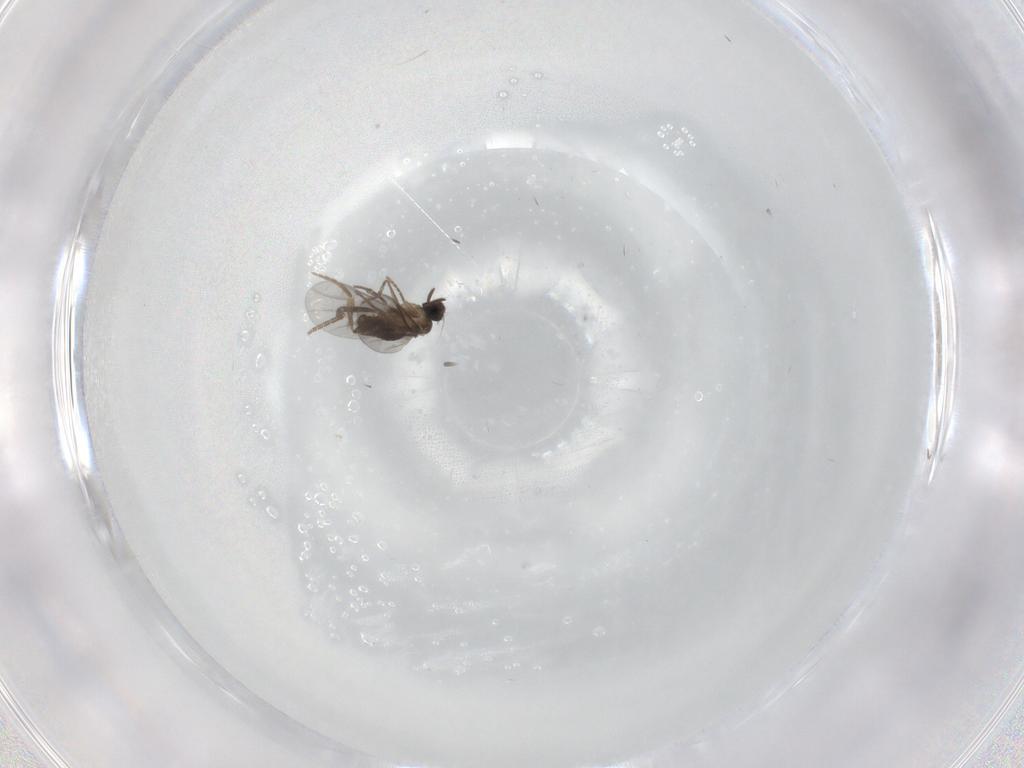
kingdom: Animalia
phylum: Arthropoda
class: Insecta
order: Diptera
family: Phoridae
